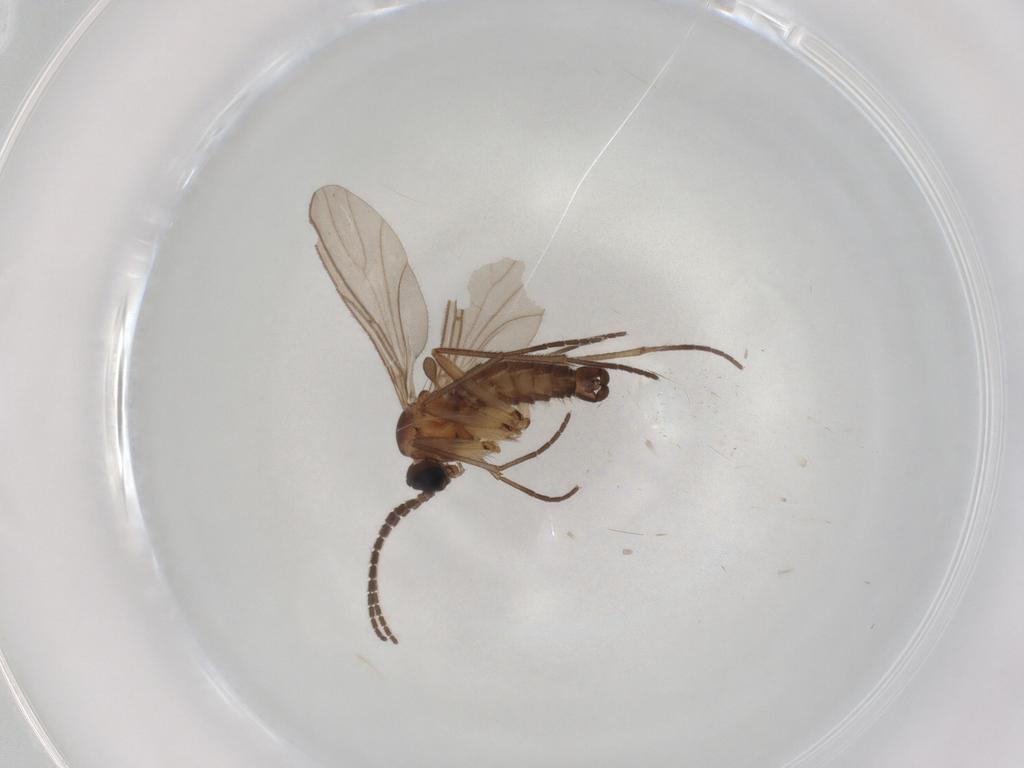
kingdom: Animalia
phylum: Arthropoda
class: Insecta
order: Diptera
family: Sciaridae
